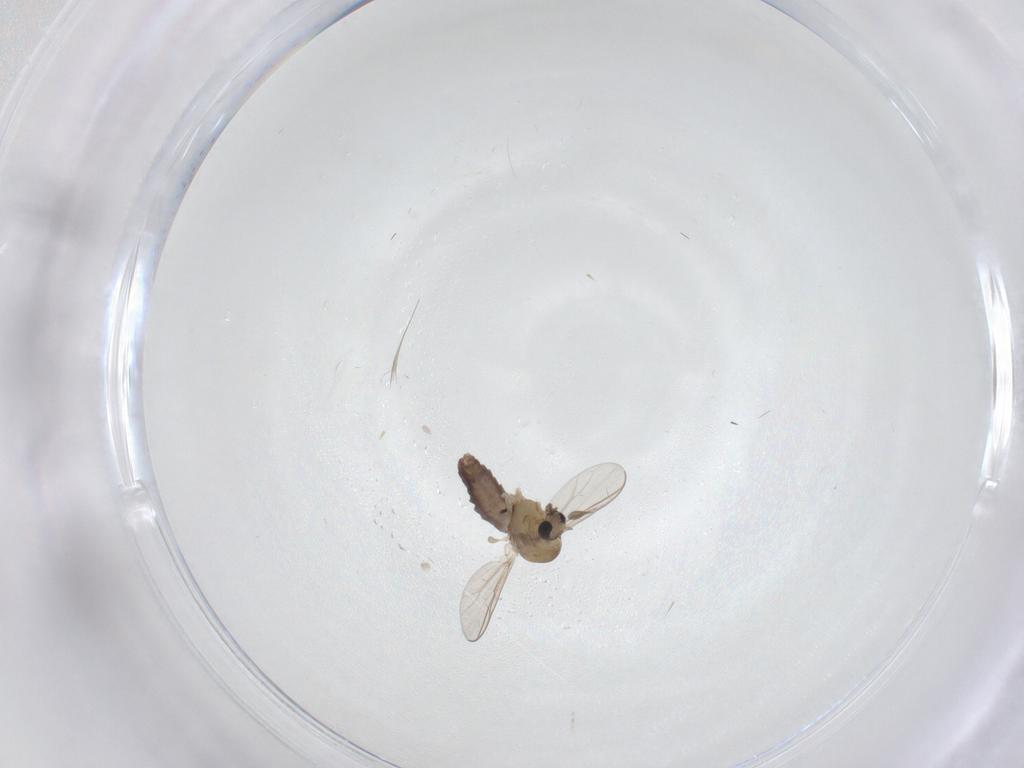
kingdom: Animalia
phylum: Arthropoda
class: Insecta
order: Diptera
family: Chironomidae
